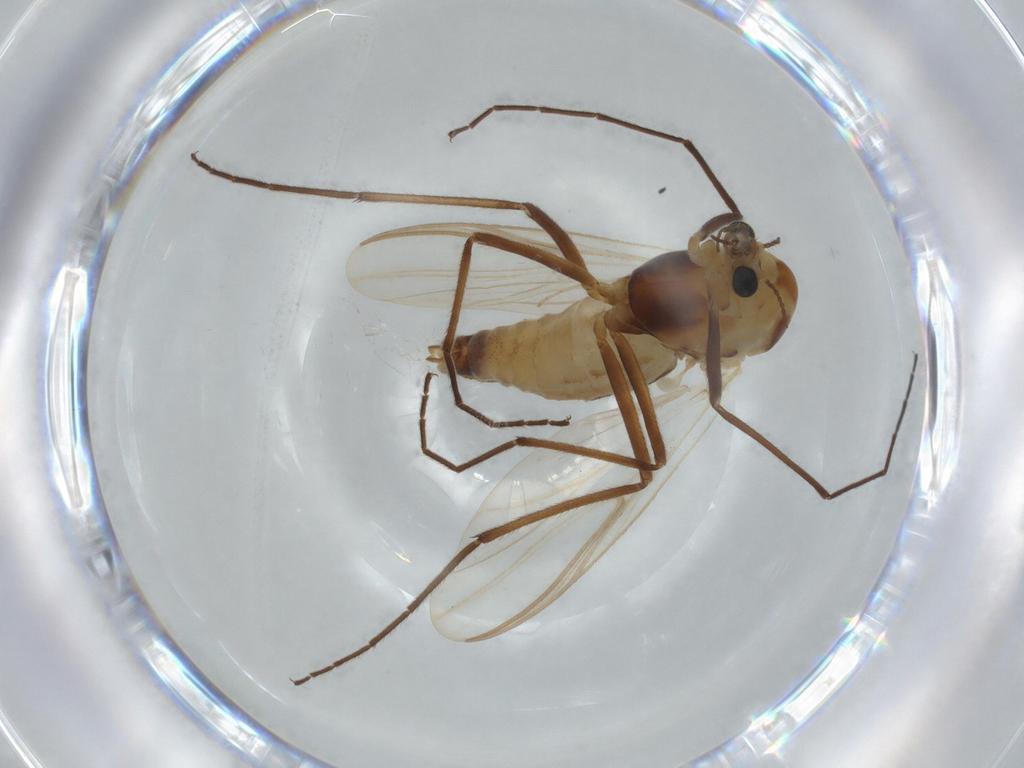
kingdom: Animalia
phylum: Arthropoda
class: Insecta
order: Diptera
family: Dolichopodidae
